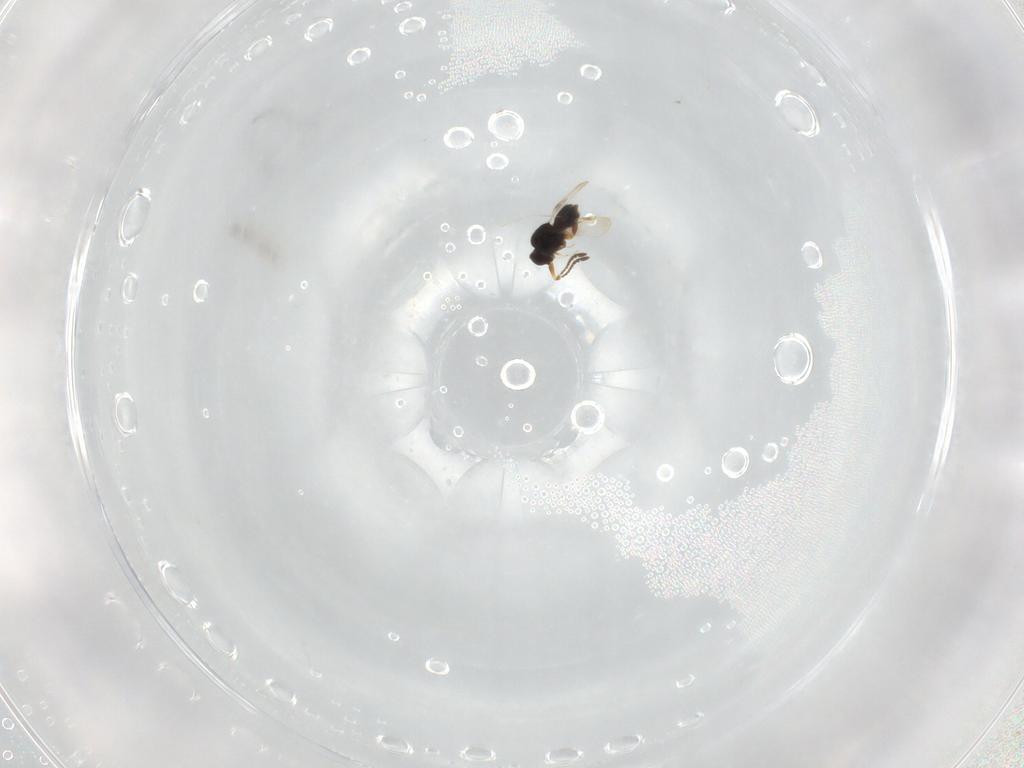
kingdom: Animalia
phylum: Arthropoda
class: Insecta
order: Hymenoptera
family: Ceraphronidae
